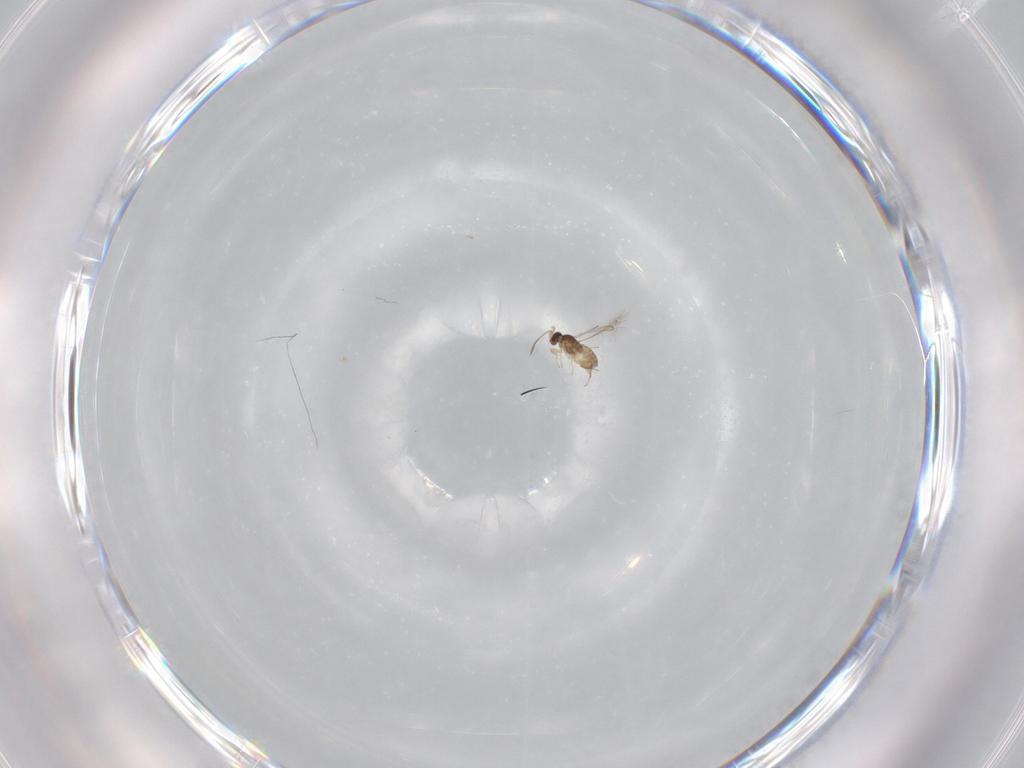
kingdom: Animalia
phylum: Arthropoda
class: Insecta
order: Hymenoptera
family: Mymaridae
